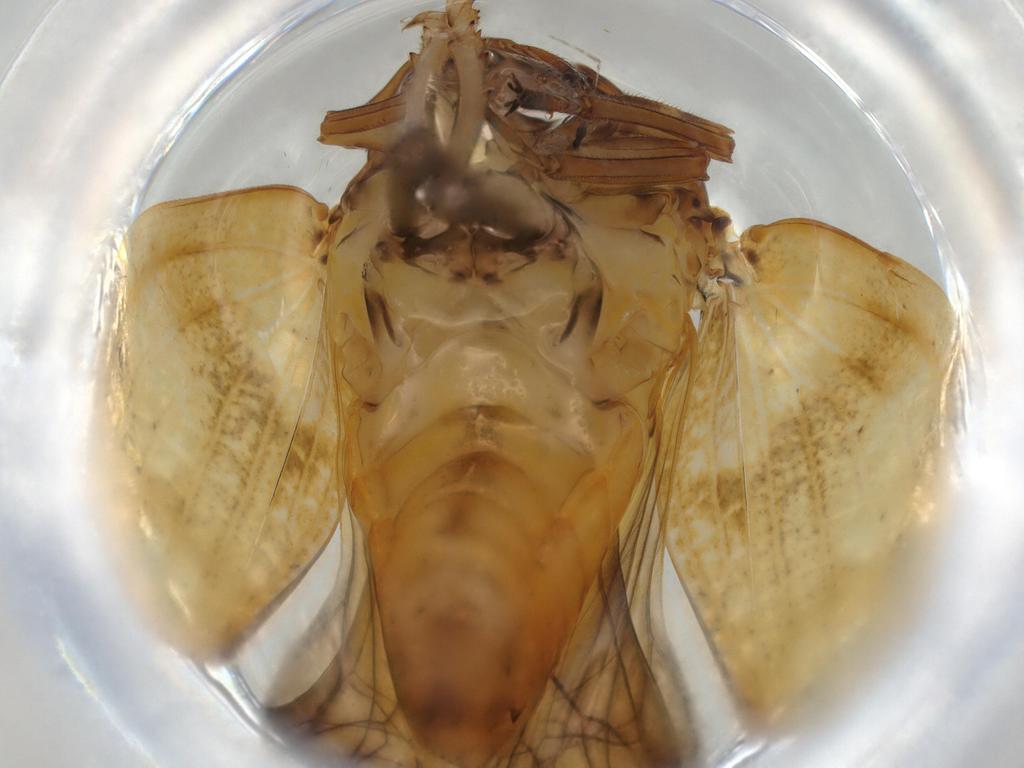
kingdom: Animalia
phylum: Arthropoda
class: Insecta
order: Hemiptera
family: Issidae
